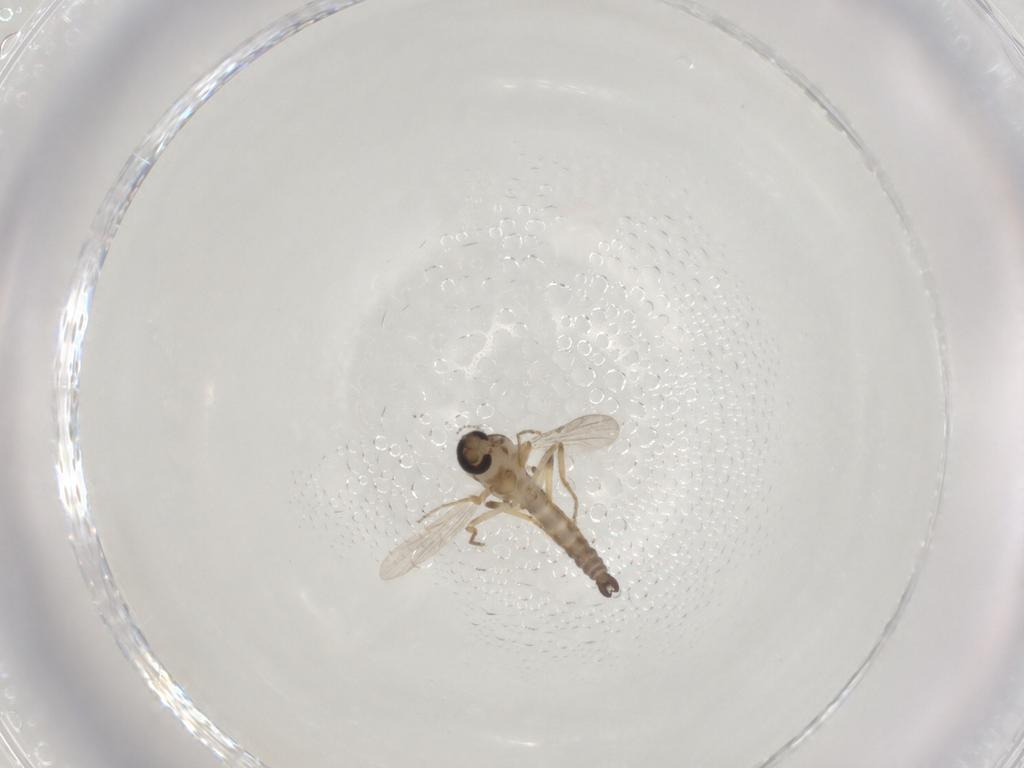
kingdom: Animalia
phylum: Arthropoda
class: Insecta
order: Diptera
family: Ceratopogonidae
